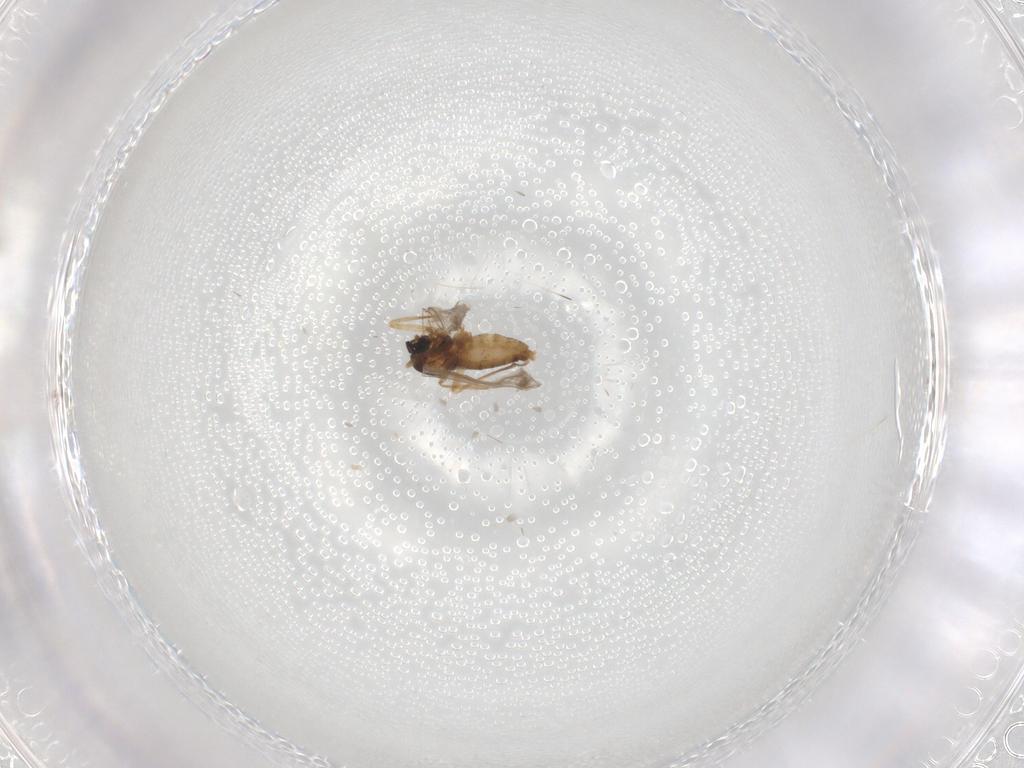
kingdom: Animalia
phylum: Arthropoda
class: Insecta
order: Diptera
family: Cecidomyiidae
